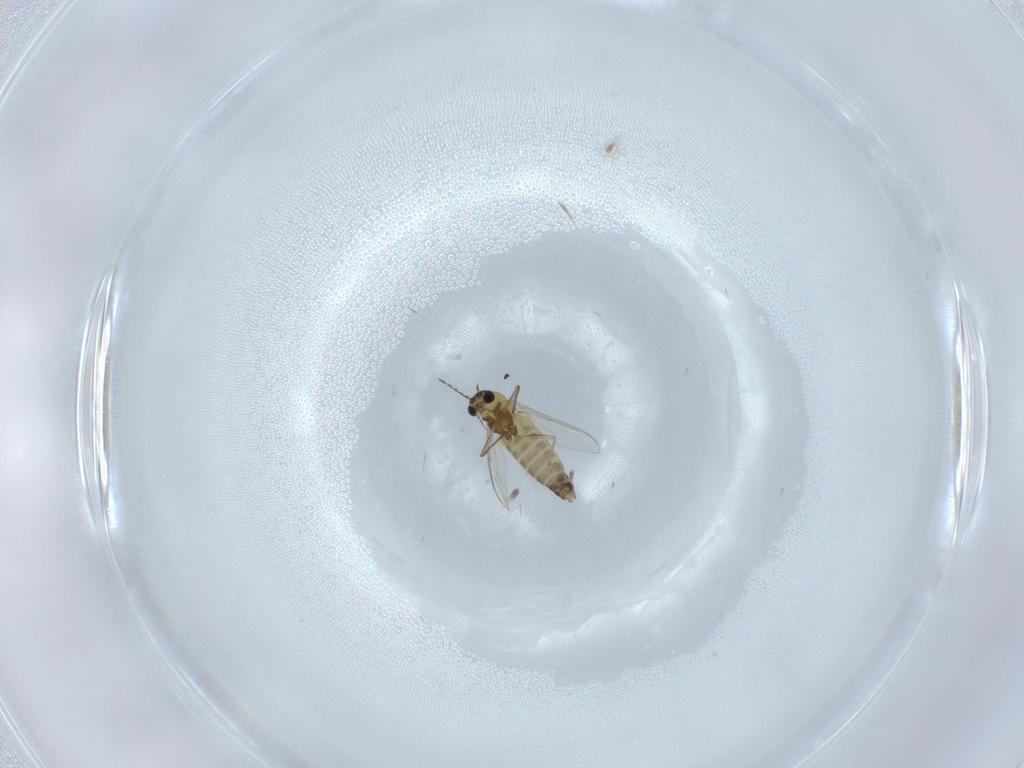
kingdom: Animalia
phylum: Arthropoda
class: Insecta
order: Diptera
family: Chironomidae
